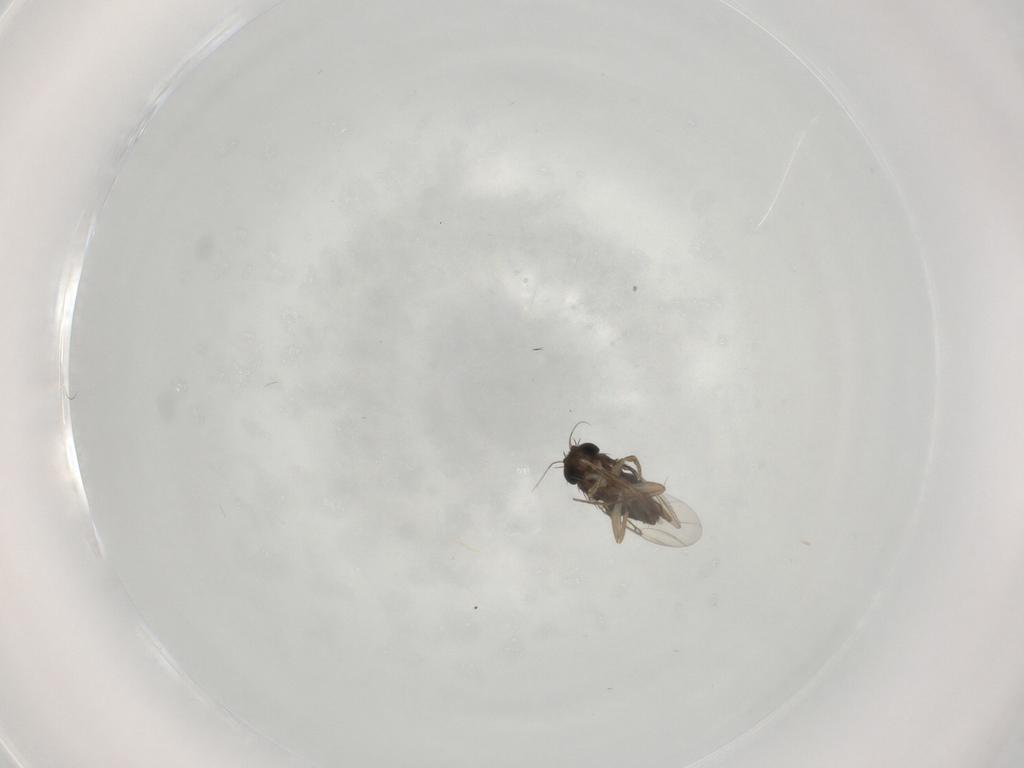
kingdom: Animalia
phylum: Arthropoda
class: Insecta
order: Diptera
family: Phoridae
